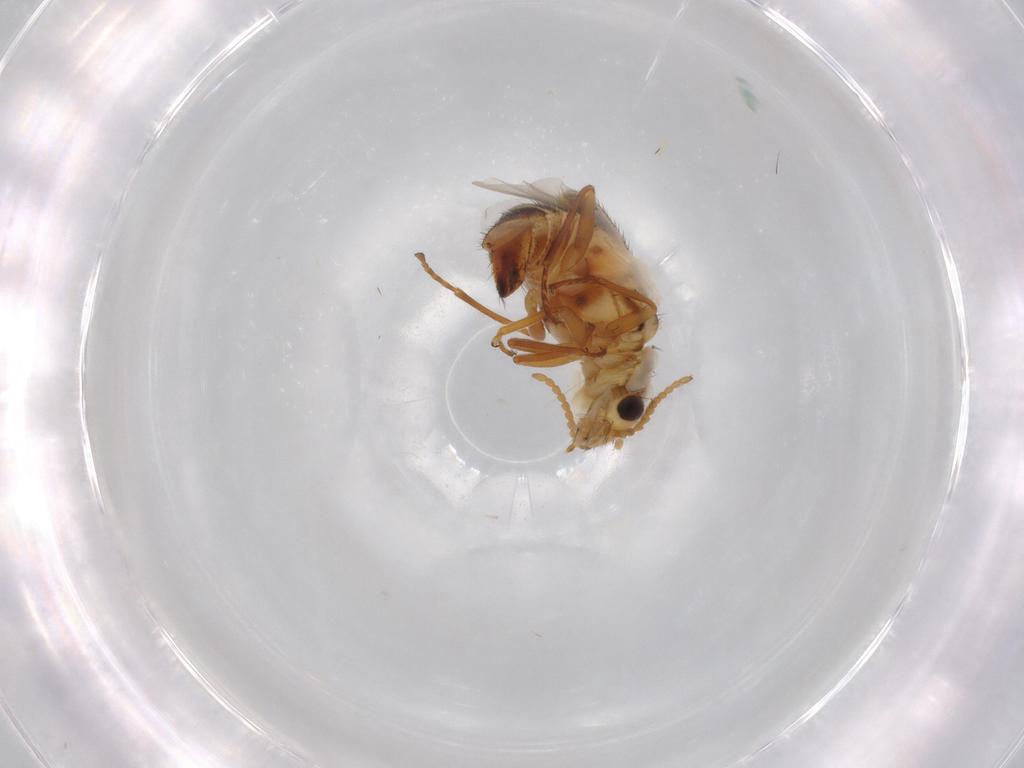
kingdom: Animalia
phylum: Arthropoda
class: Insecta
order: Coleoptera
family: Melyridae
